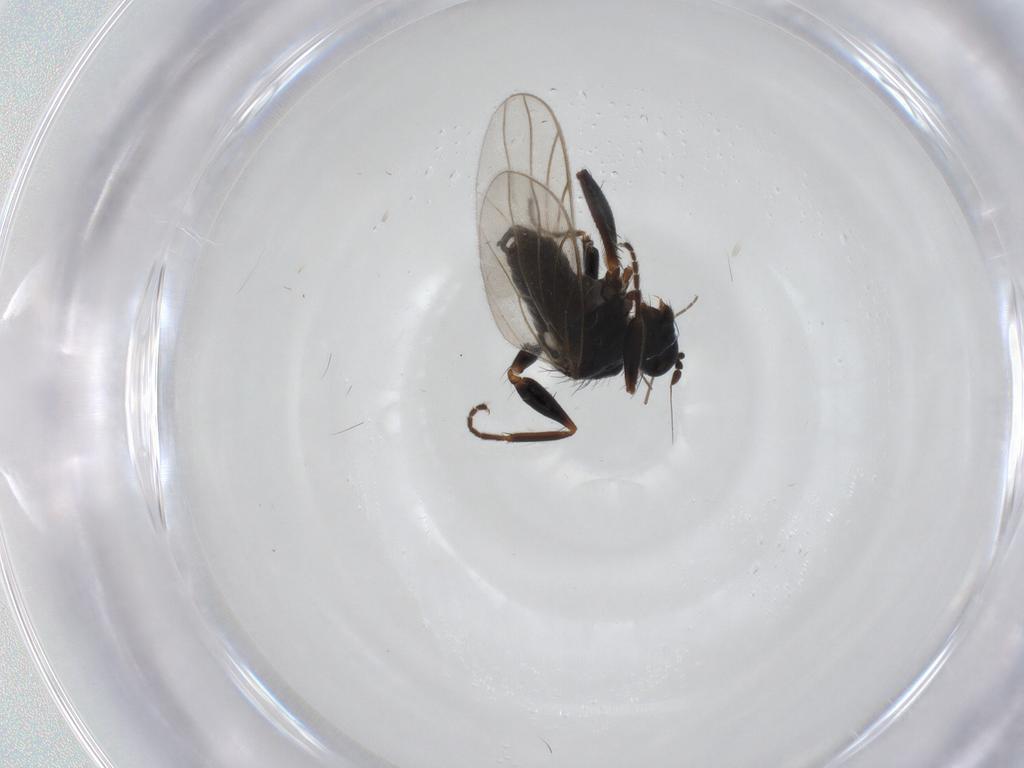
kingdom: Animalia
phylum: Arthropoda
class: Insecta
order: Diptera
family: Hybotidae
